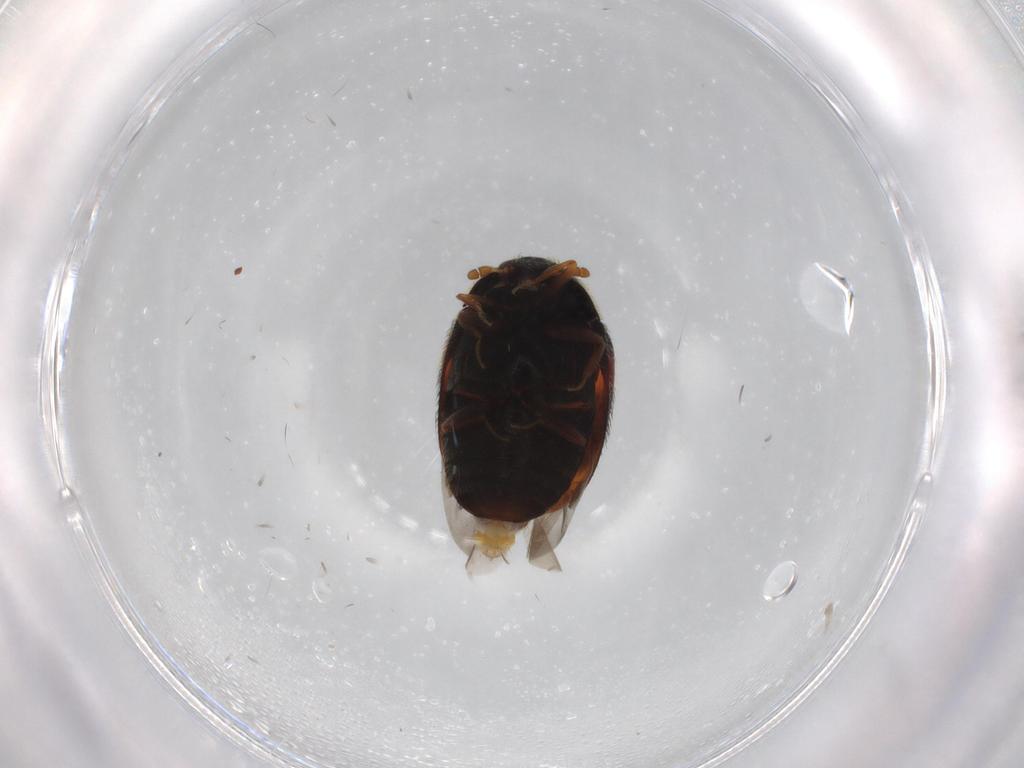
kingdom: Animalia
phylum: Arthropoda
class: Insecta
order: Coleoptera
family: Dermestidae
